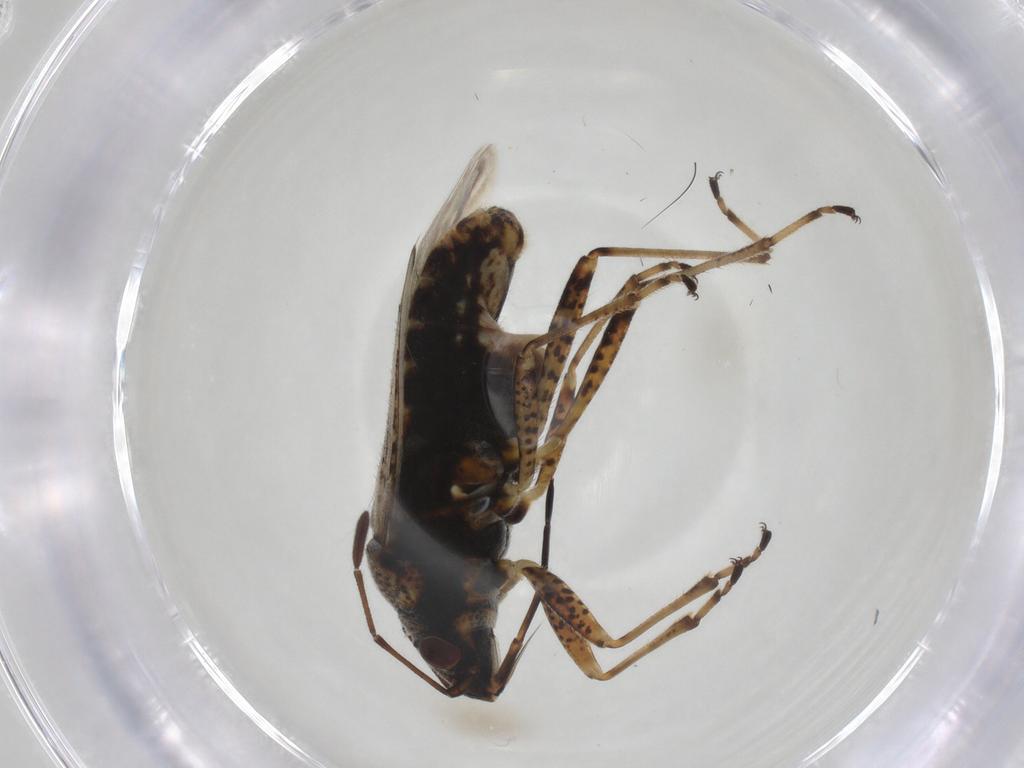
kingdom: Animalia
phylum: Arthropoda
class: Insecta
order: Hemiptera
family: Lygaeidae
